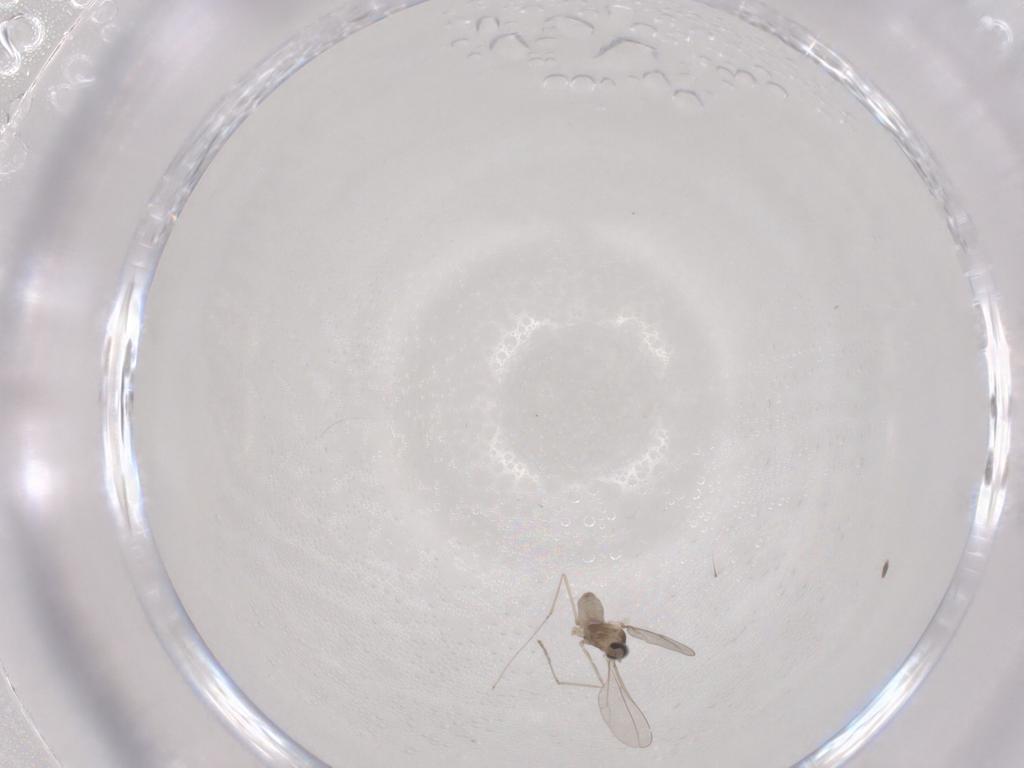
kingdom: Animalia
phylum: Arthropoda
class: Insecta
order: Diptera
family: Cecidomyiidae
